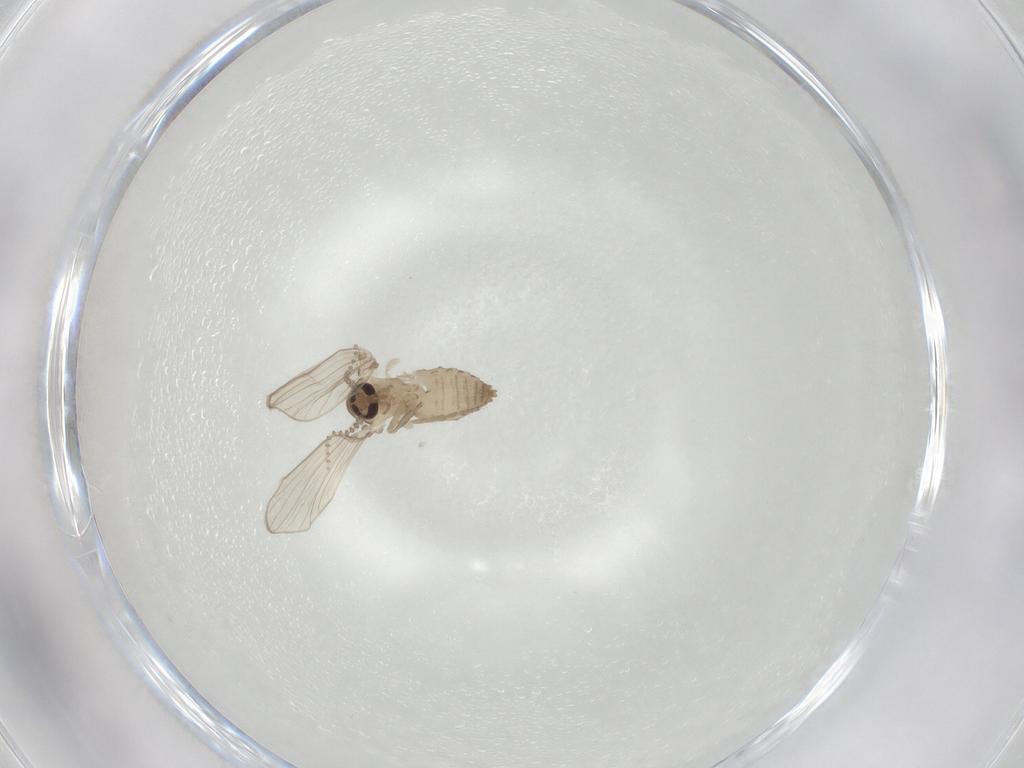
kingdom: Animalia
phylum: Arthropoda
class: Insecta
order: Diptera
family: Psychodidae
